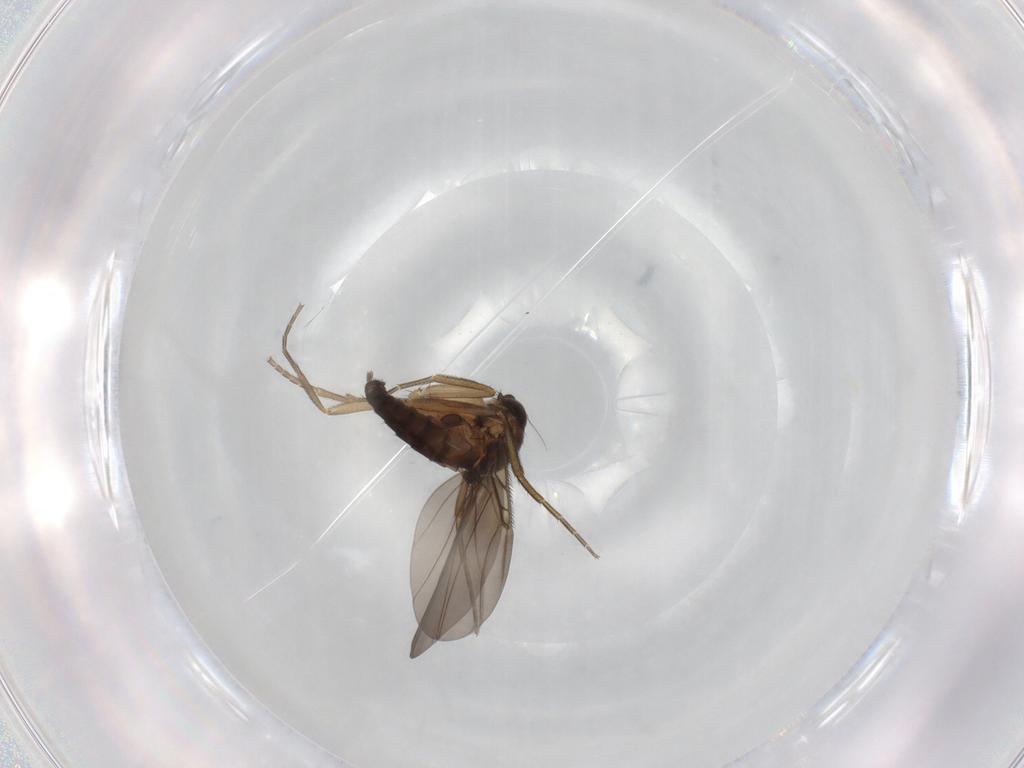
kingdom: Animalia
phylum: Arthropoda
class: Insecta
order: Diptera
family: Phoridae
